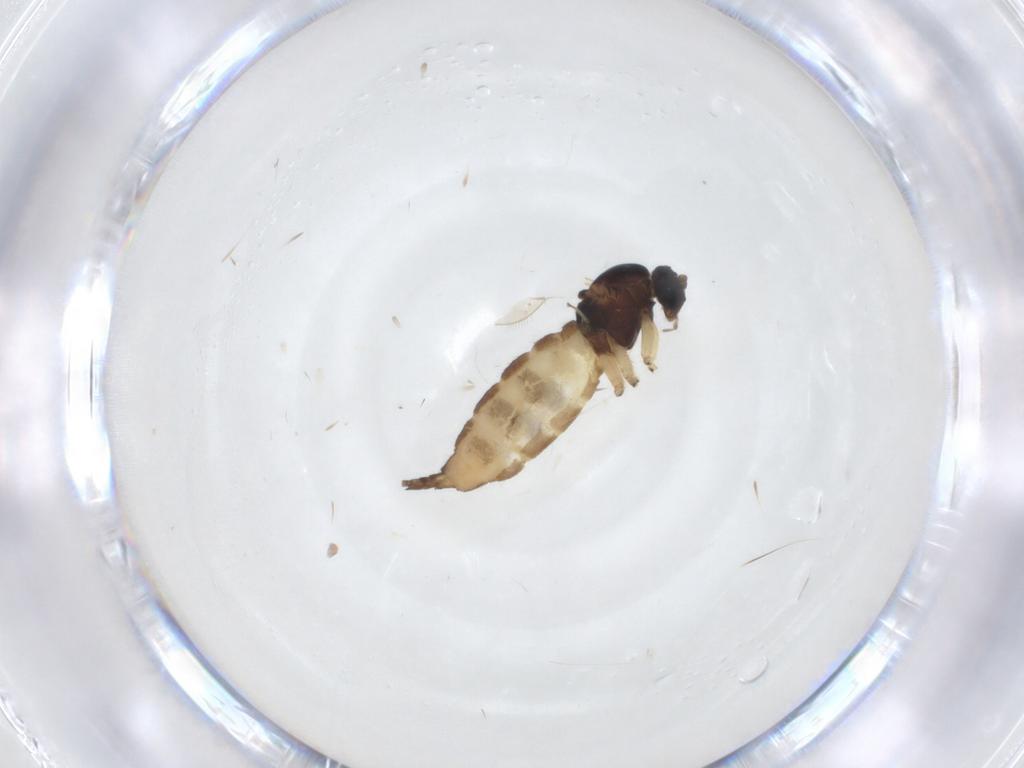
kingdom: Animalia
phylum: Arthropoda
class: Insecta
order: Diptera
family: Sciaridae
